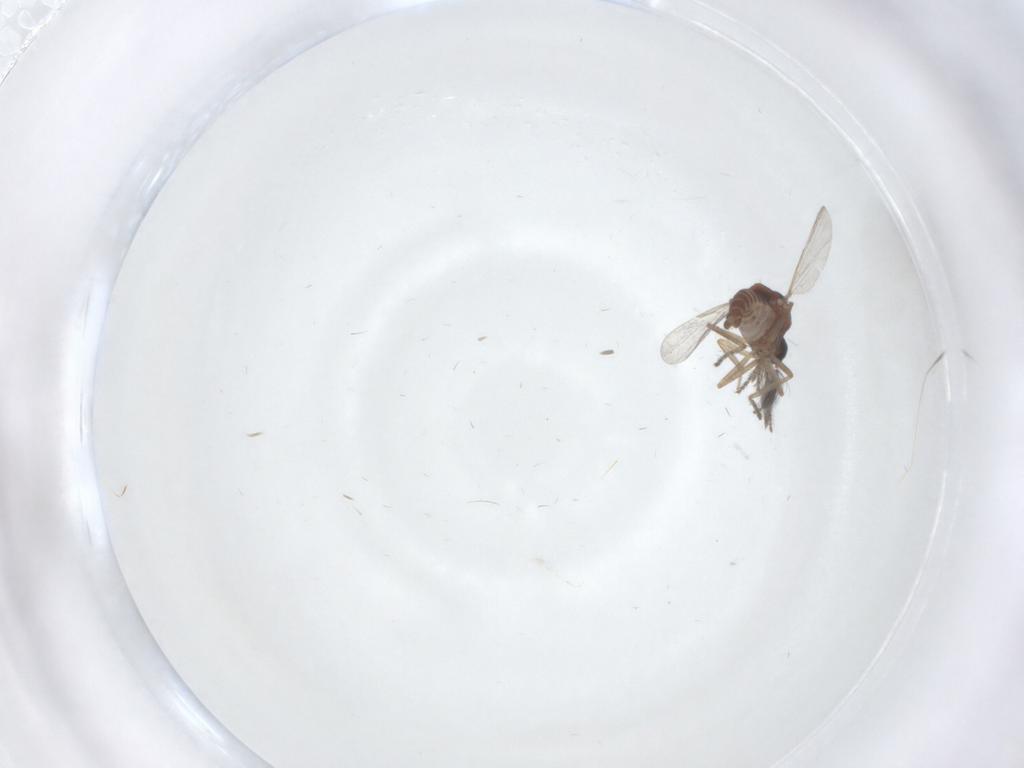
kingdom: Animalia
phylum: Arthropoda
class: Insecta
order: Diptera
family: Ceratopogonidae
